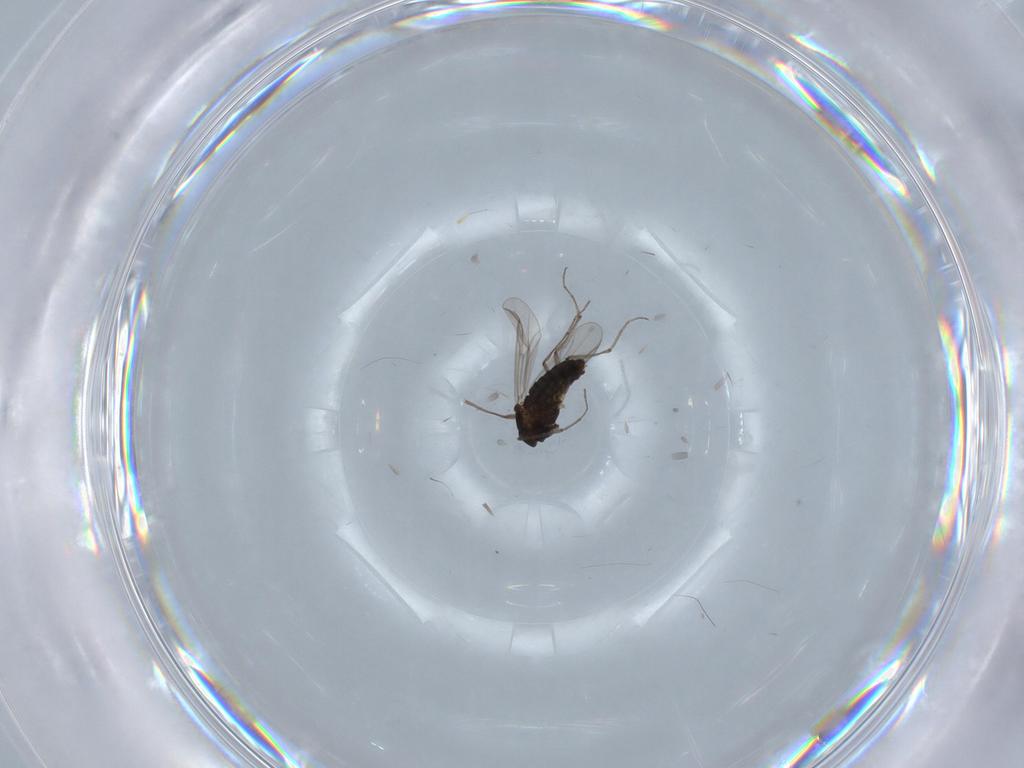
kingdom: Animalia
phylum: Arthropoda
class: Insecta
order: Diptera
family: Chironomidae
